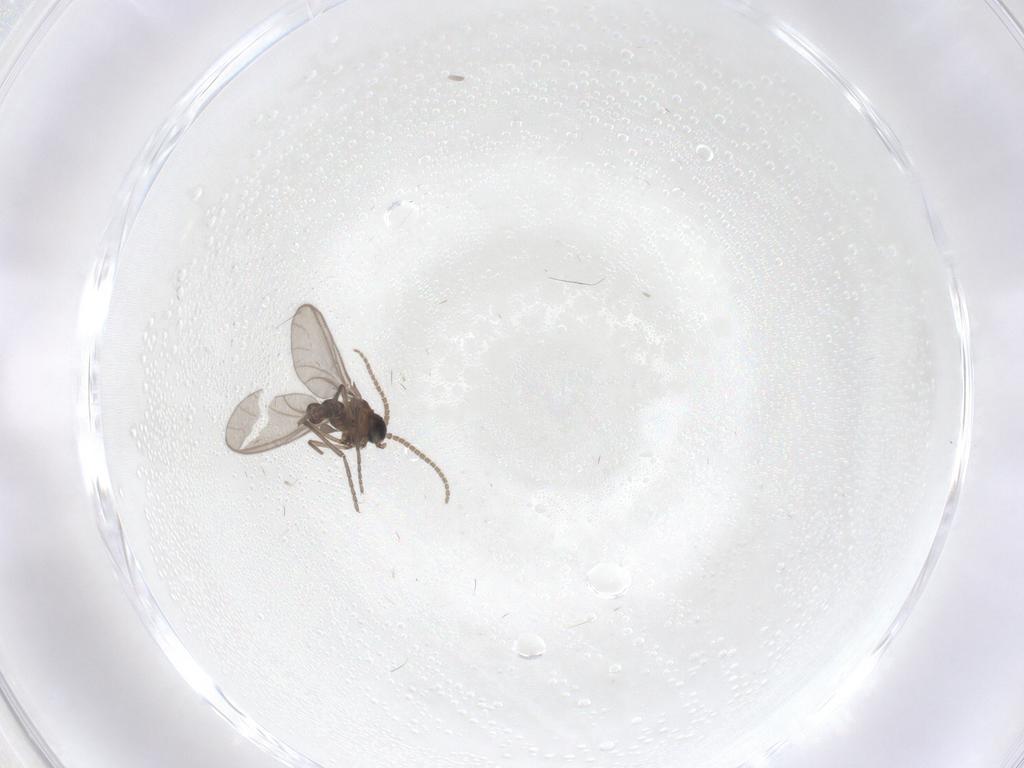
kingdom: Animalia
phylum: Arthropoda
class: Insecta
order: Diptera
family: Sciaridae
